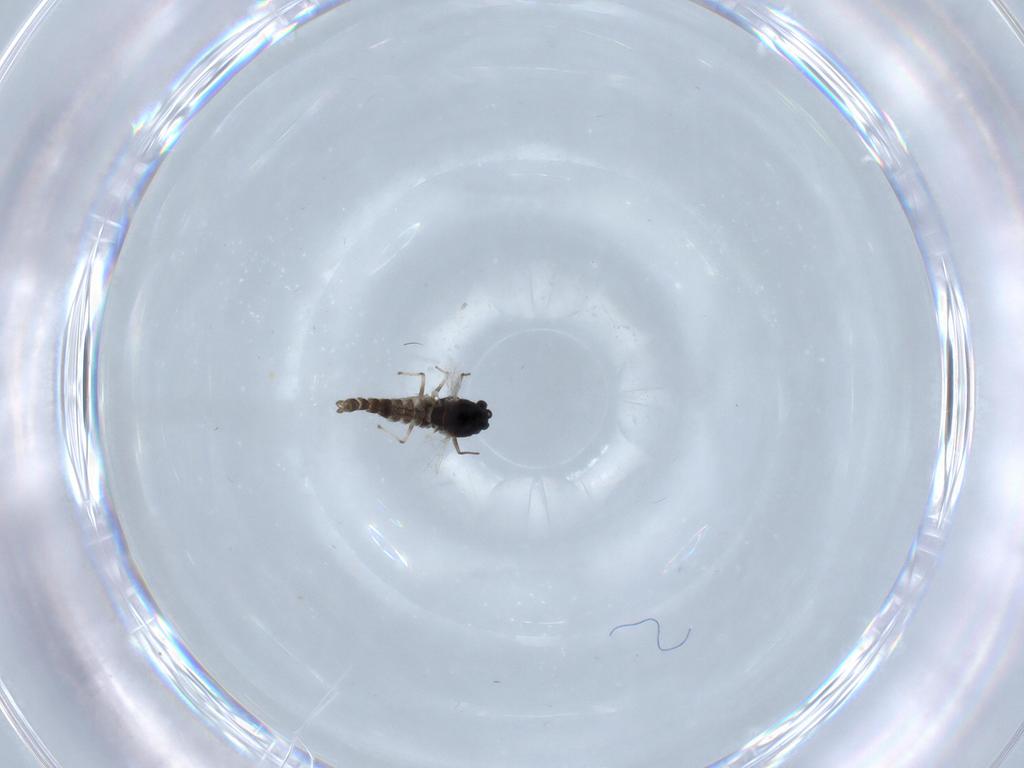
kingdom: Animalia
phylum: Arthropoda
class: Insecta
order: Diptera
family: Chironomidae
